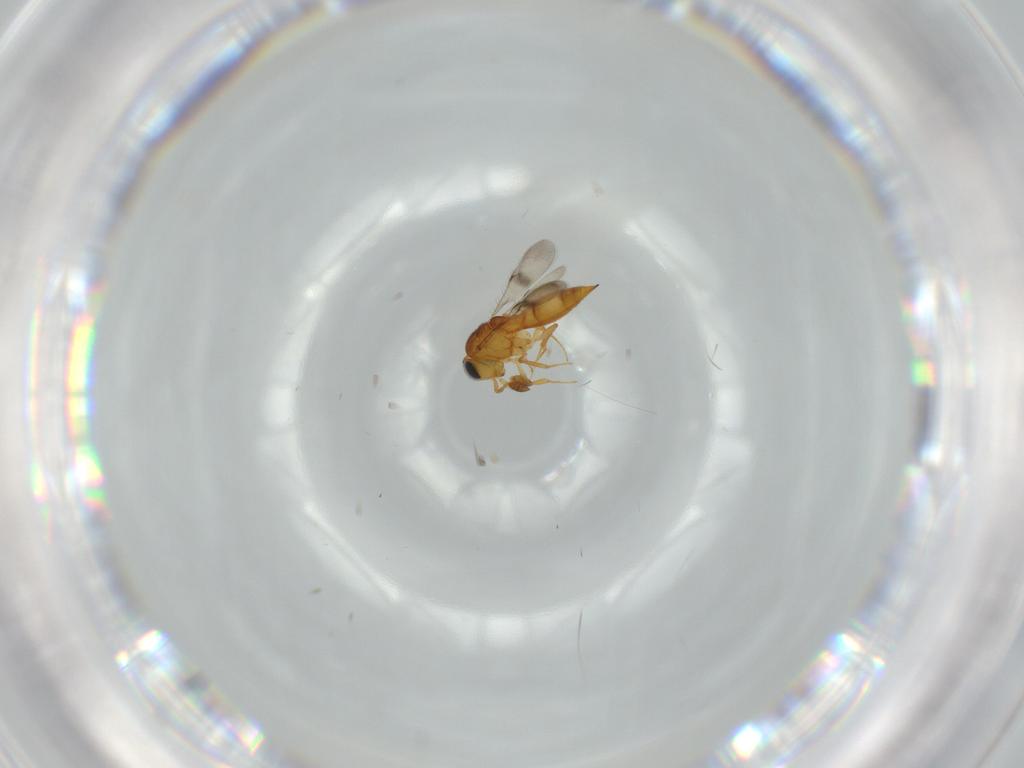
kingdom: Animalia
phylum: Arthropoda
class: Insecta
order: Hymenoptera
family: Scelionidae
